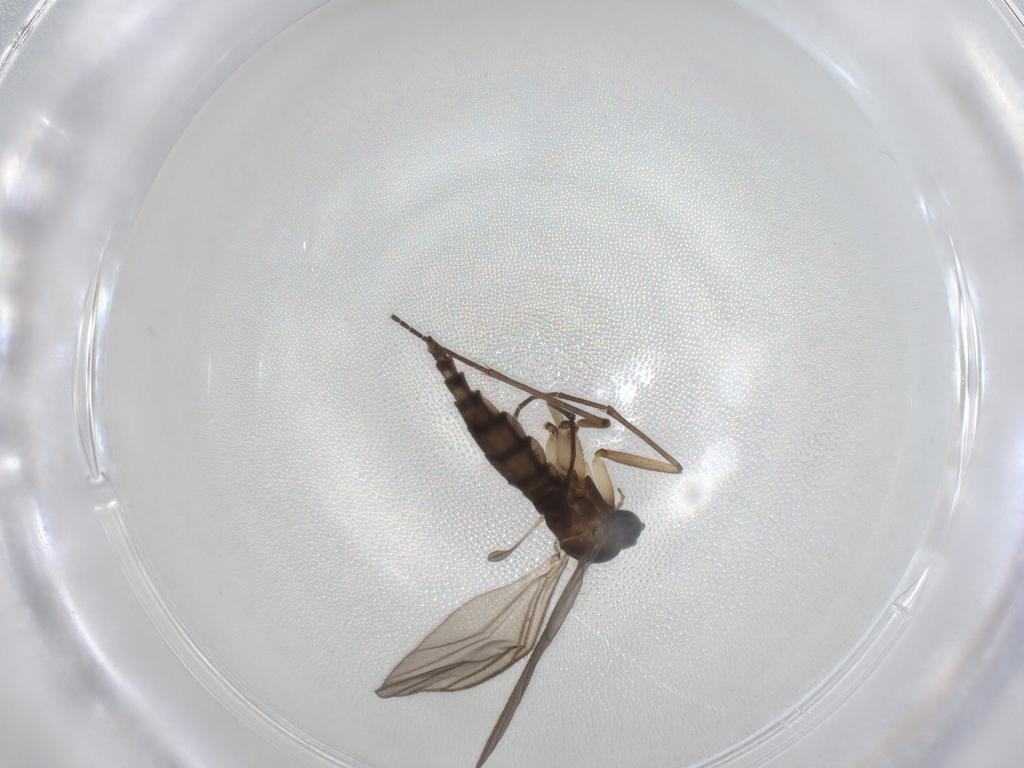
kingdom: Animalia
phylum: Arthropoda
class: Insecta
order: Diptera
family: Sciaridae
